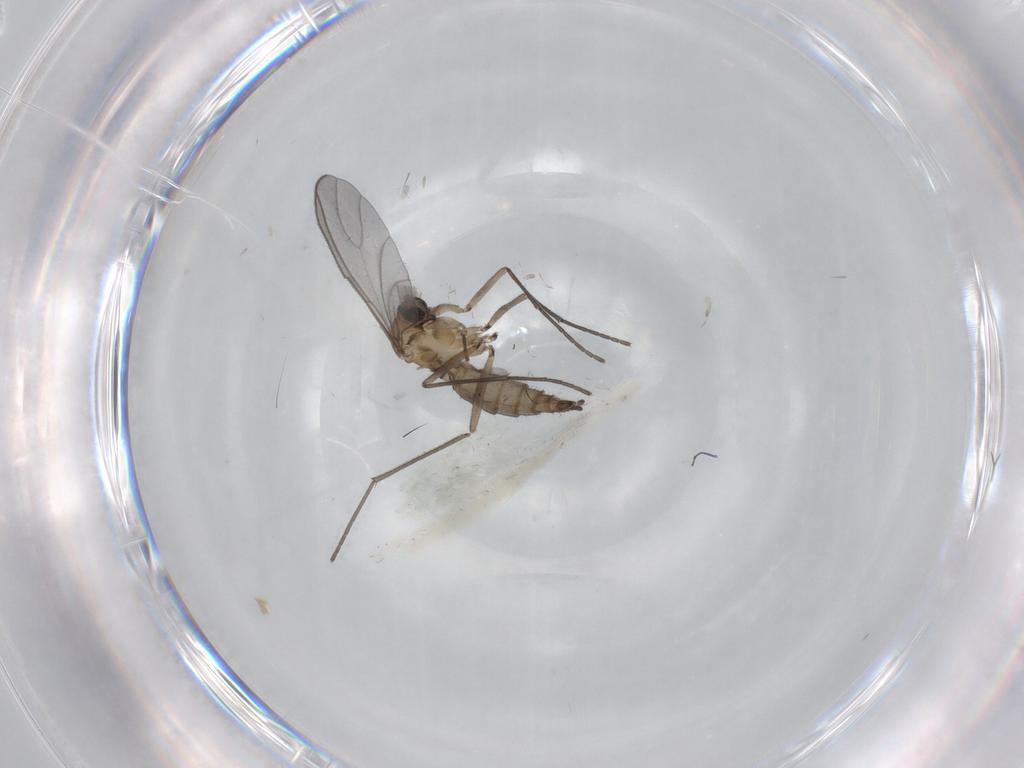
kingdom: Animalia
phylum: Arthropoda
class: Insecta
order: Diptera
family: Sciaridae
